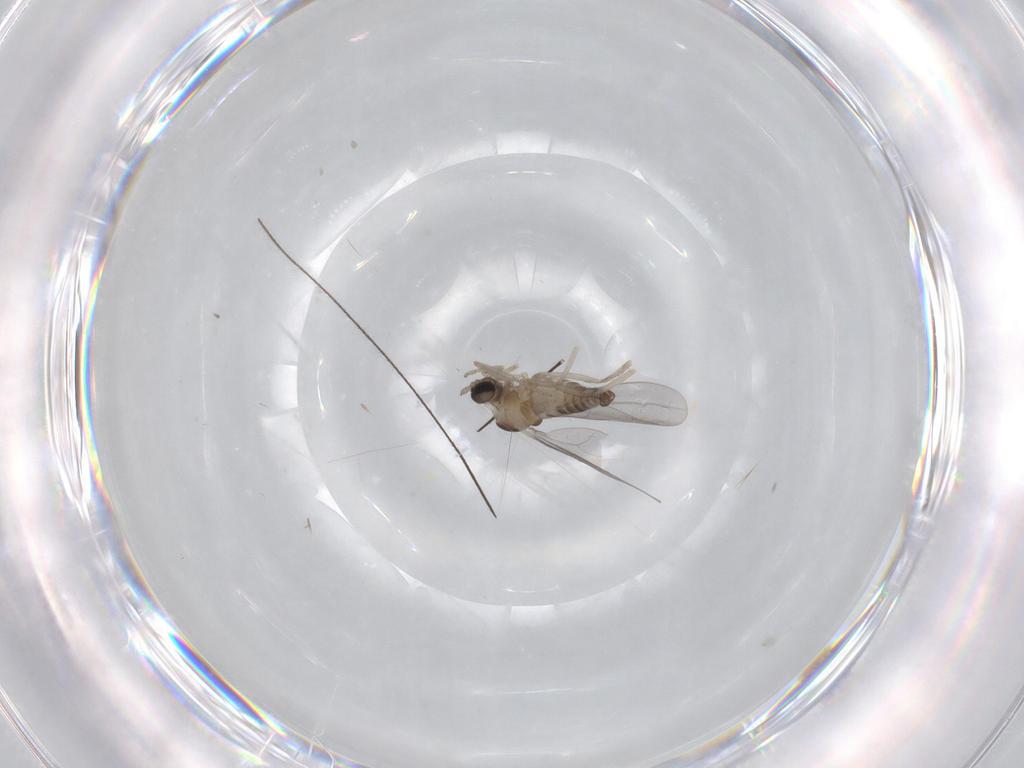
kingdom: Animalia
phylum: Arthropoda
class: Insecta
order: Diptera
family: Cecidomyiidae
